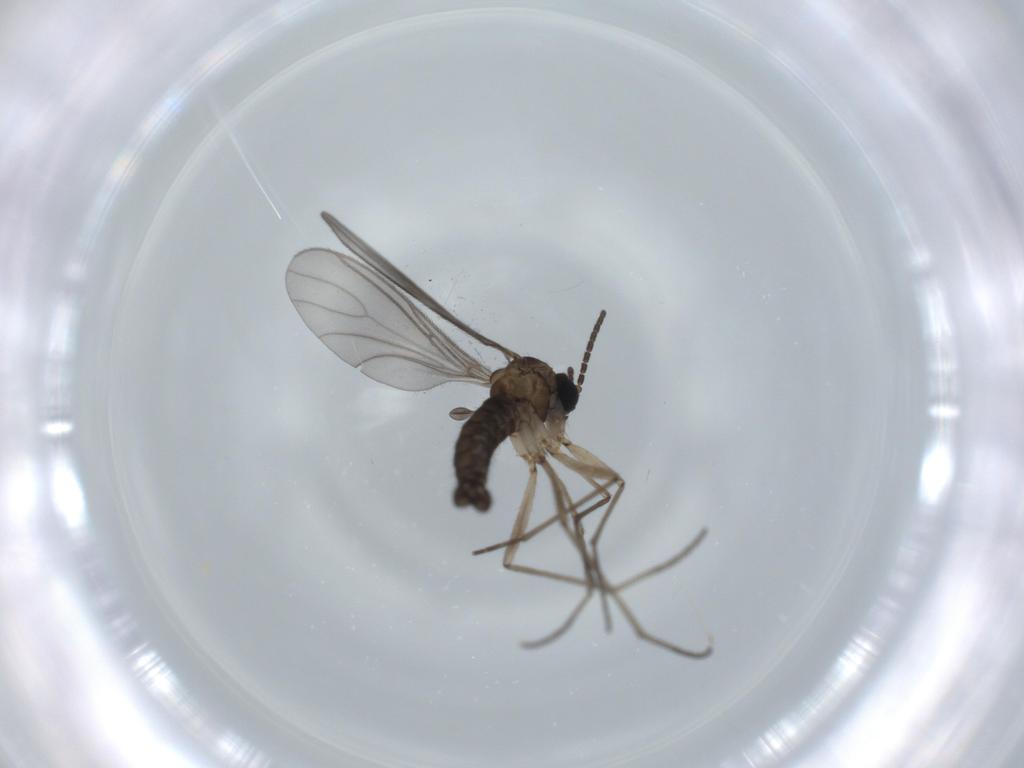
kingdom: Animalia
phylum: Arthropoda
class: Insecta
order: Diptera
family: Sciaridae
